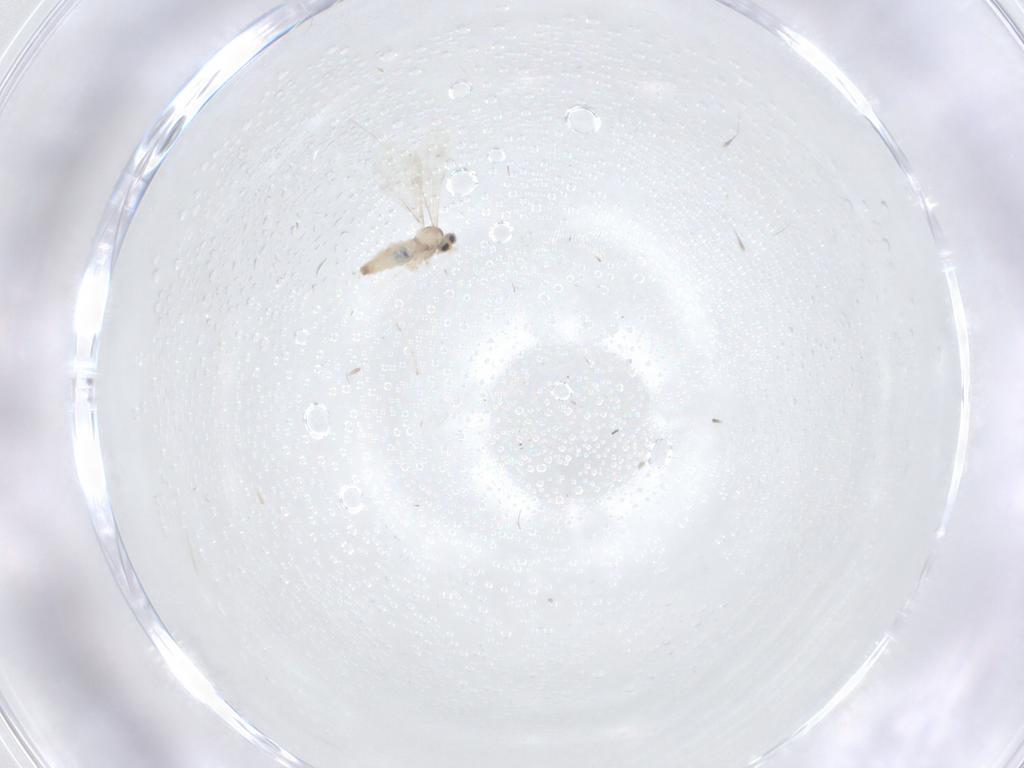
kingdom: Animalia
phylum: Arthropoda
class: Insecta
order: Diptera
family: Cecidomyiidae
